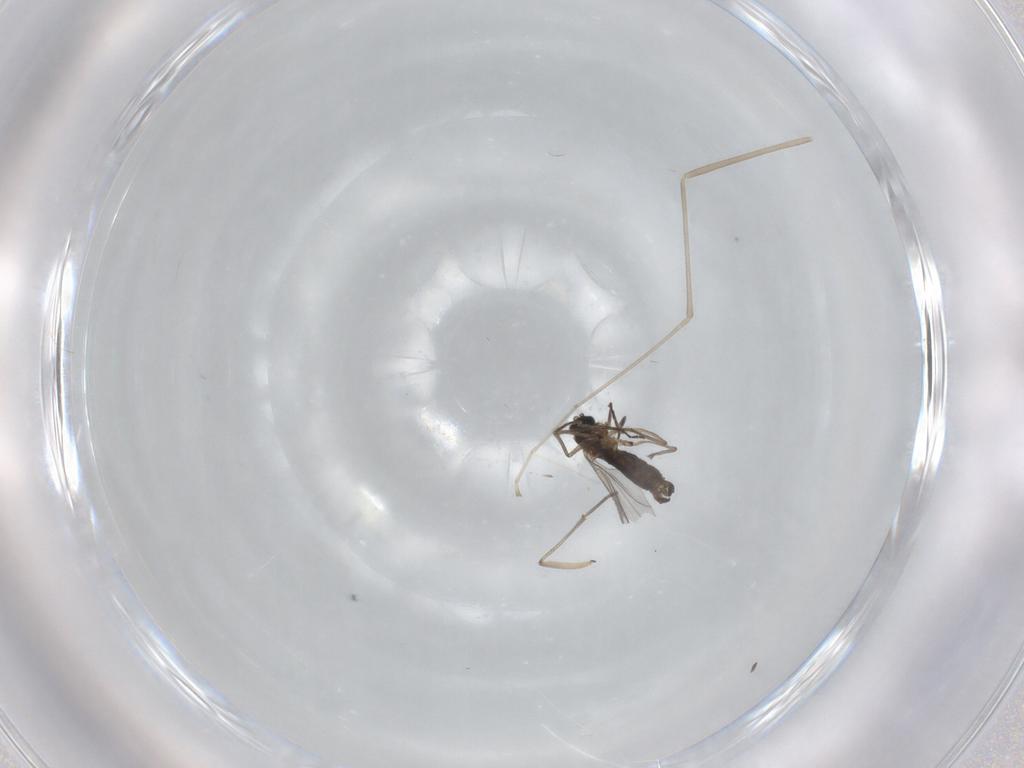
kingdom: Animalia
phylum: Arthropoda
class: Insecta
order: Diptera
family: Sciaridae
